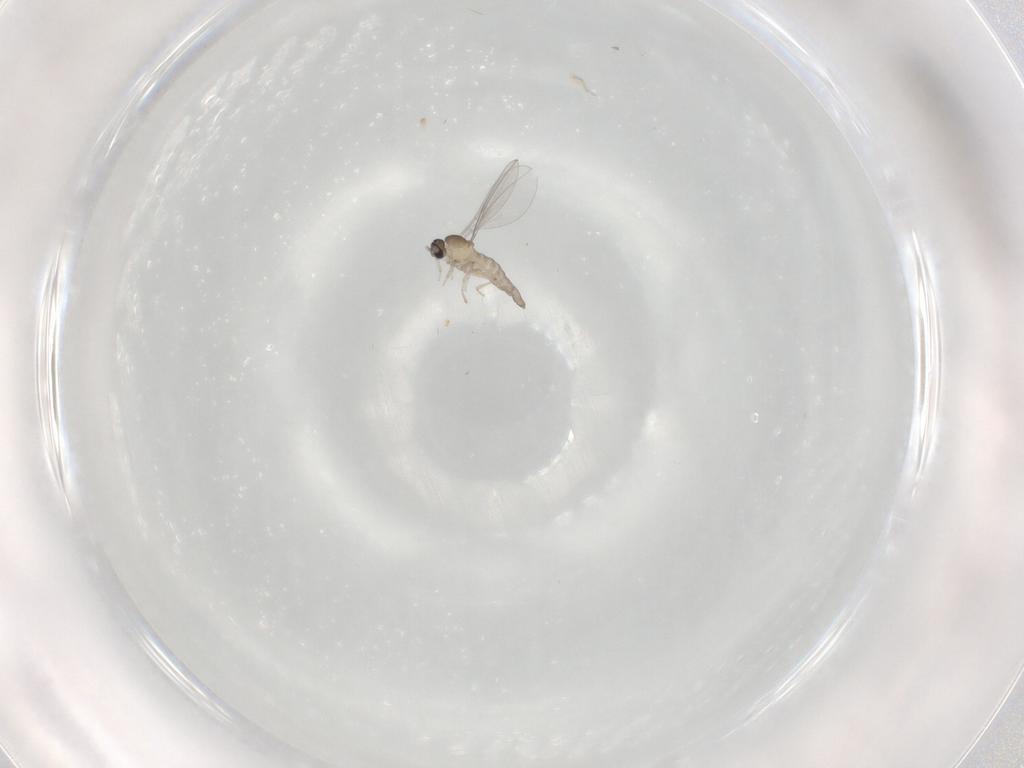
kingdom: Animalia
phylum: Arthropoda
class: Insecta
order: Diptera
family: Cecidomyiidae
